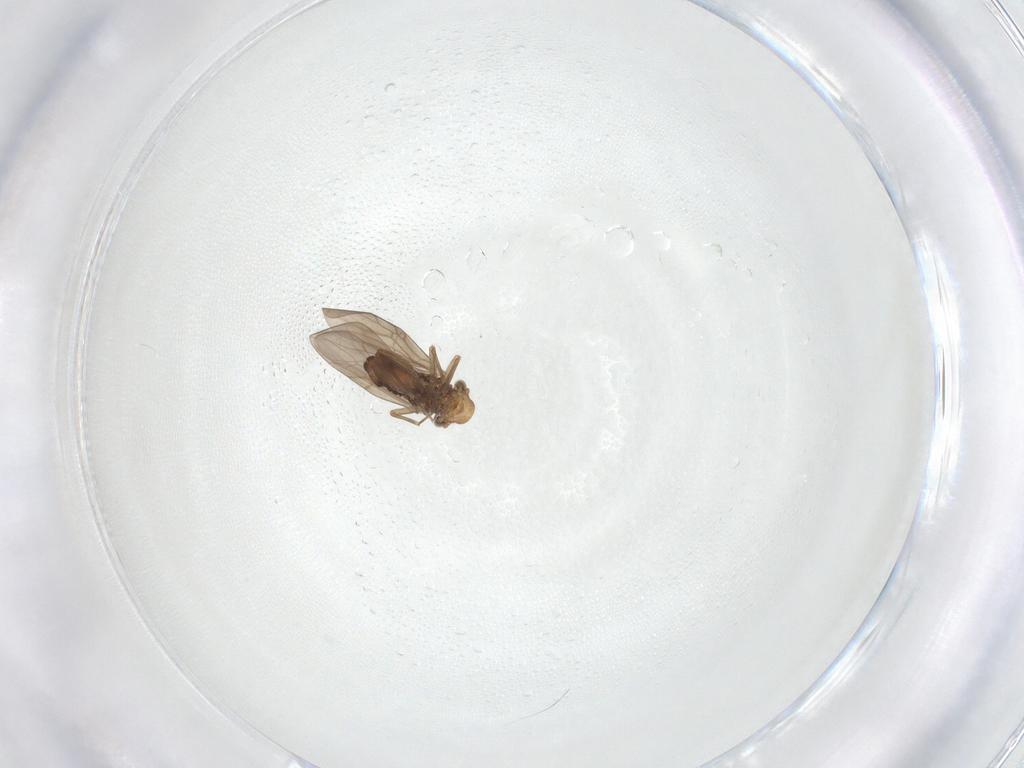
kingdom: Animalia
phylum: Arthropoda
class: Insecta
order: Psocodea
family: Lepidopsocidae
